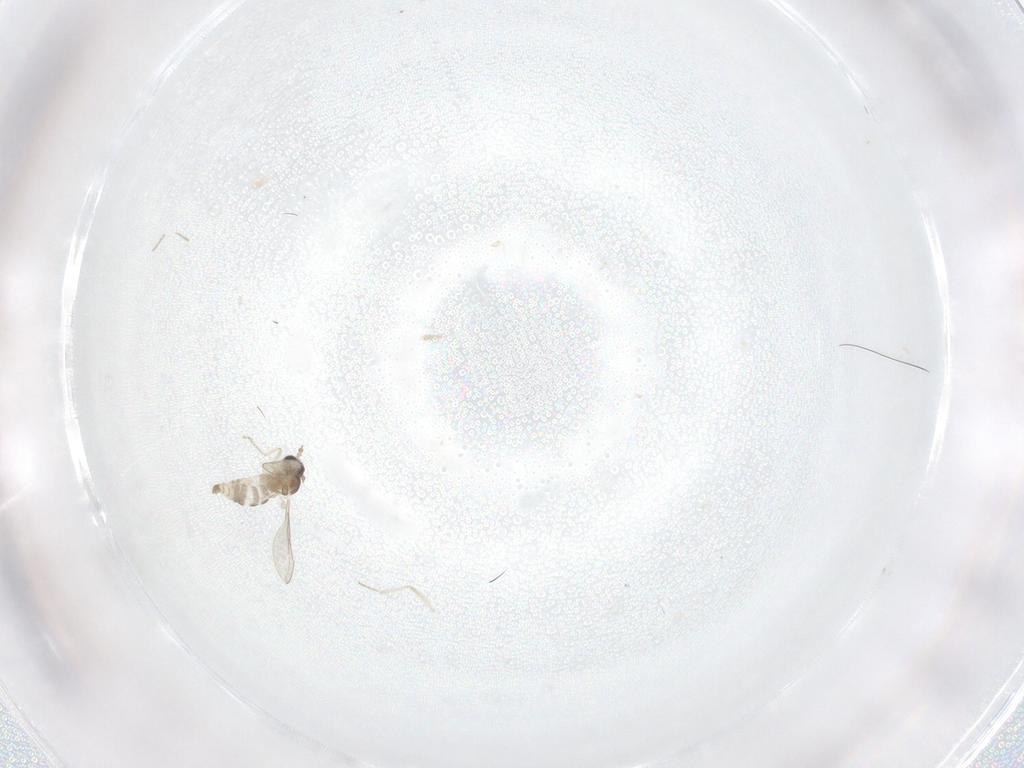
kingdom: Animalia
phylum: Arthropoda
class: Insecta
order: Diptera
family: Cecidomyiidae
